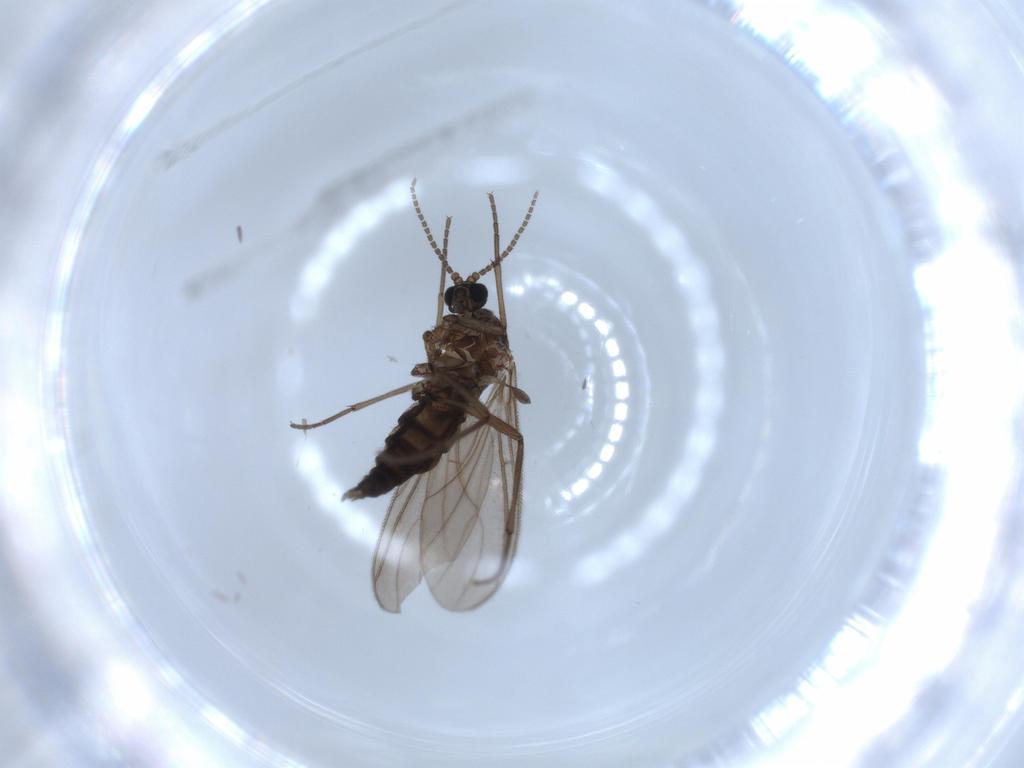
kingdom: Animalia
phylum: Arthropoda
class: Insecta
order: Diptera
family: Sciaridae
